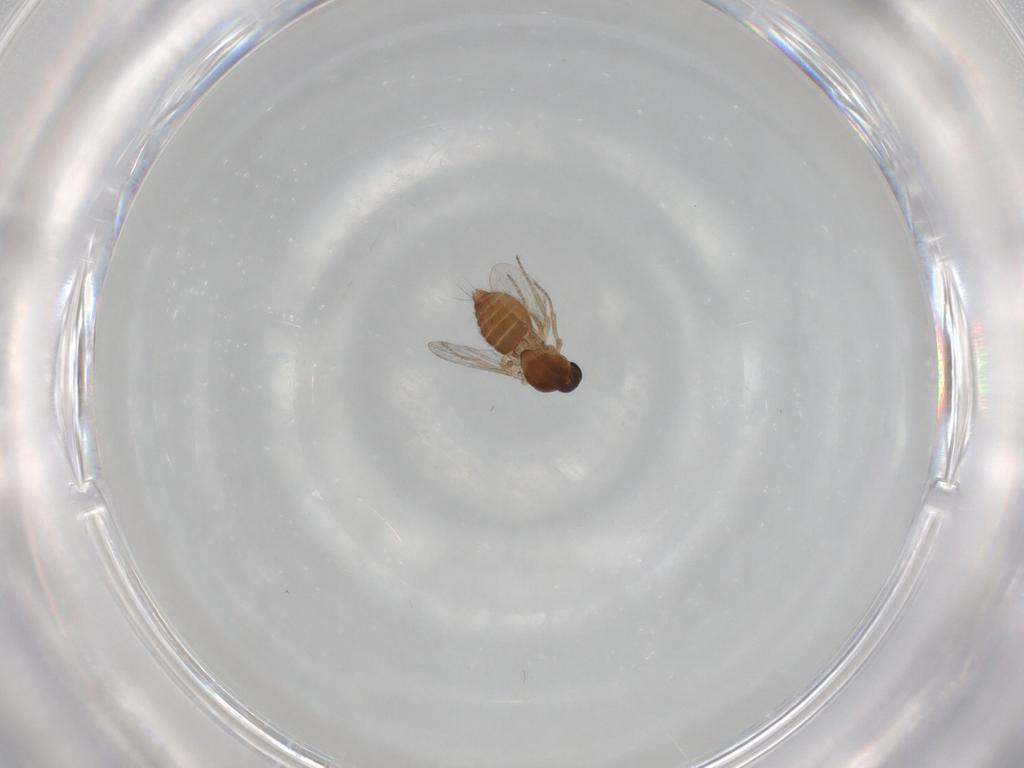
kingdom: Animalia
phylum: Arthropoda
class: Insecta
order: Diptera
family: Ceratopogonidae
